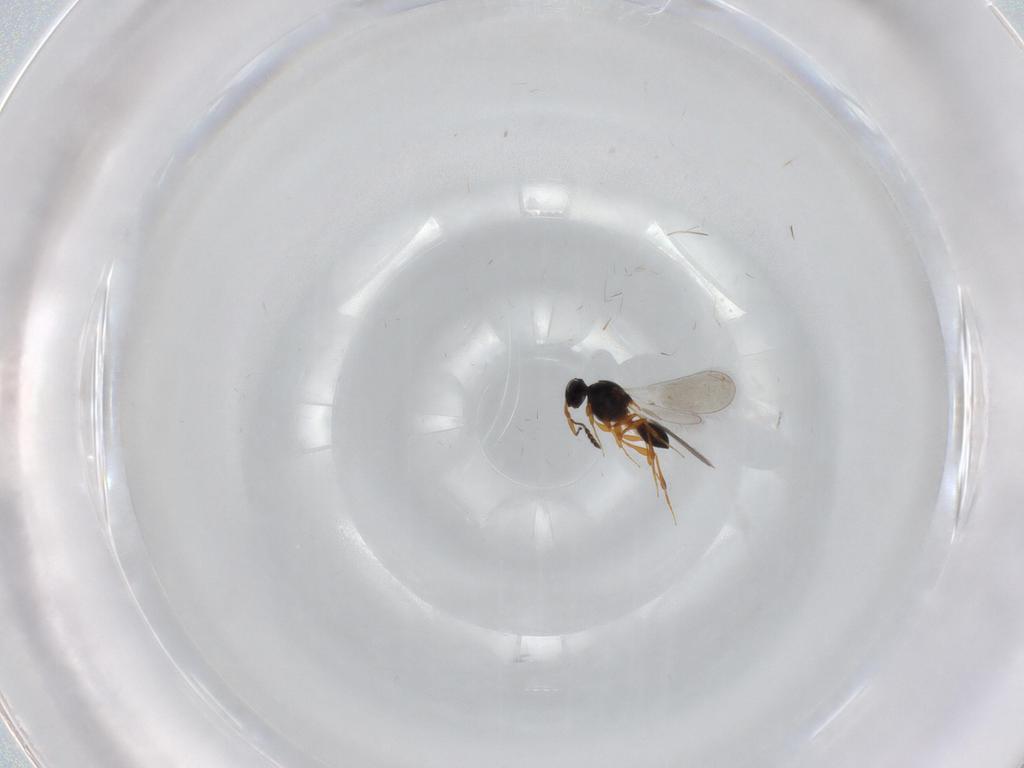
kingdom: Animalia
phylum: Arthropoda
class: Insecta
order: Hymenoptera
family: Platygastridae
